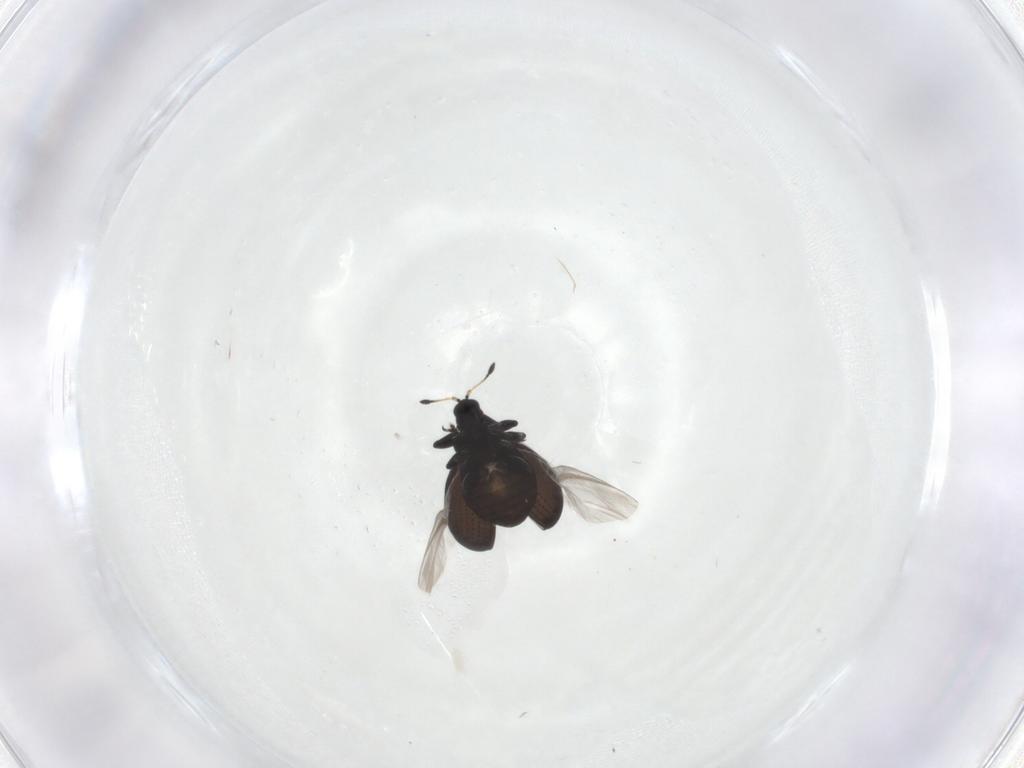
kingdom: Animalia
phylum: Arthropoda
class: Insecta
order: Coleoptera
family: Curculionidae
